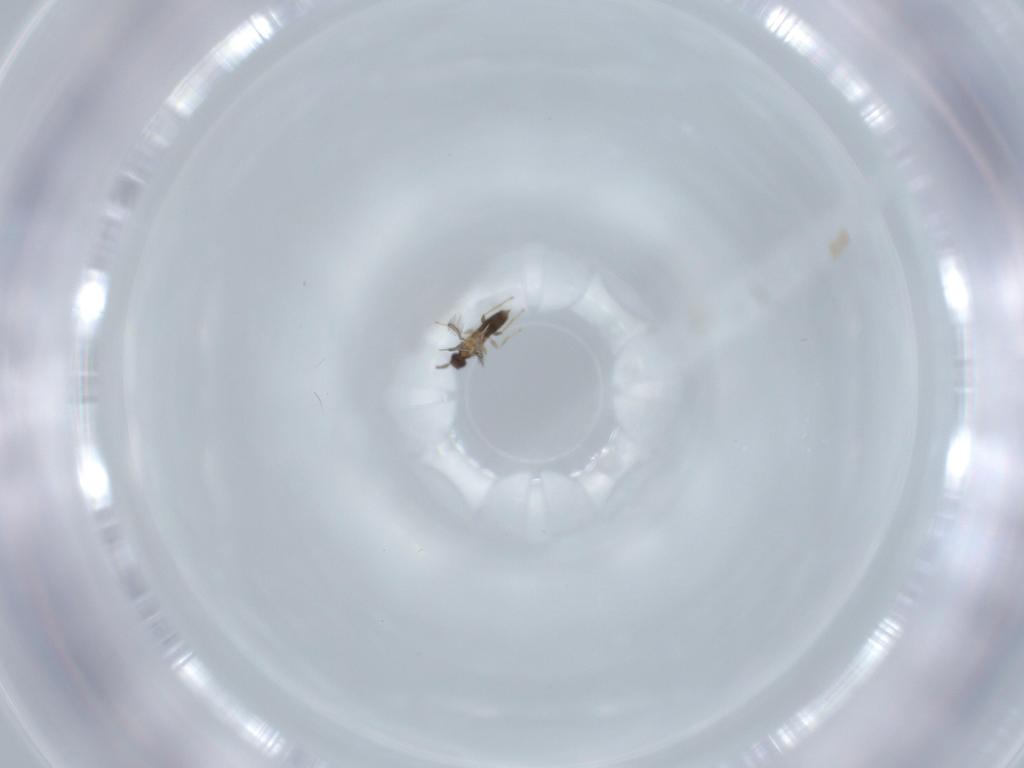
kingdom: Animalia
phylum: Arthropoda
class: Insecta
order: Hymenoptera
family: Mymaridae
